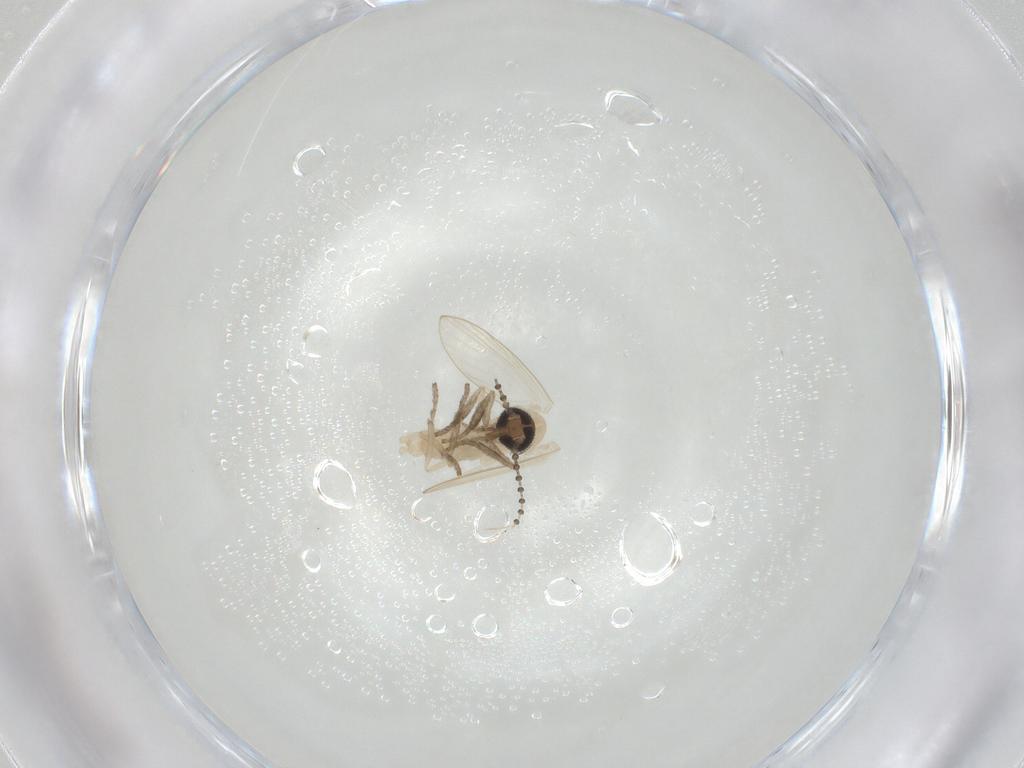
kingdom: Animalia
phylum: Arthropoda
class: Insecta
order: Diptera
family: Psychodidae
